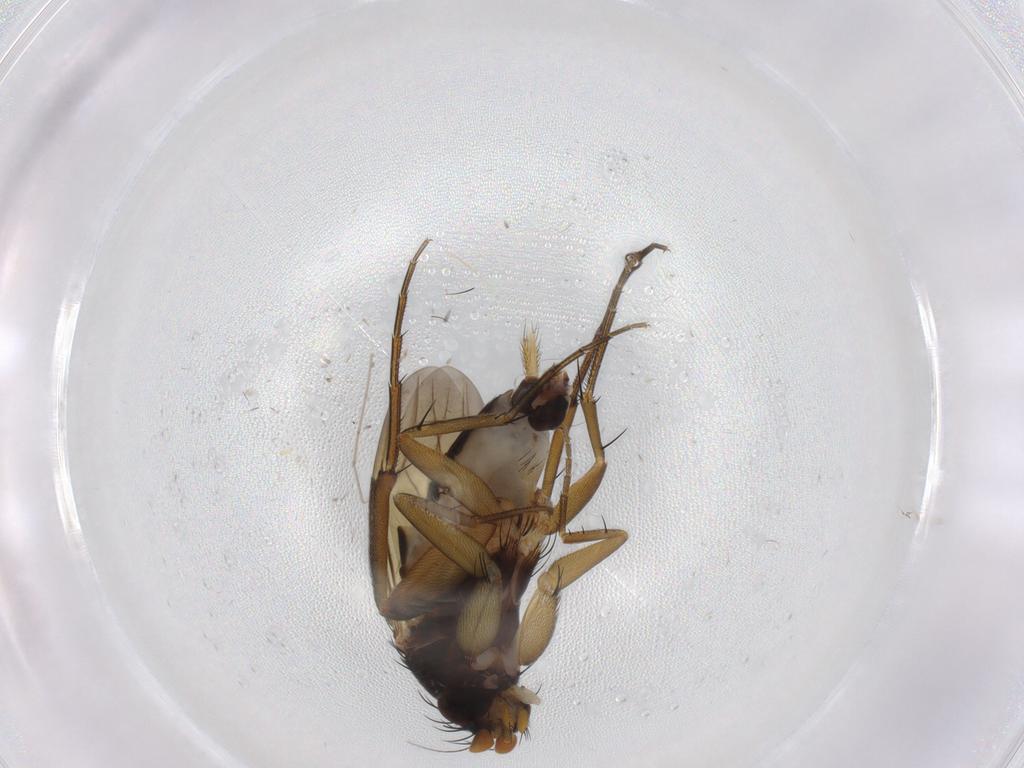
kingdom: Animalia
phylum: Arthropoda
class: Insecta
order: Diptera
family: Phoridae
